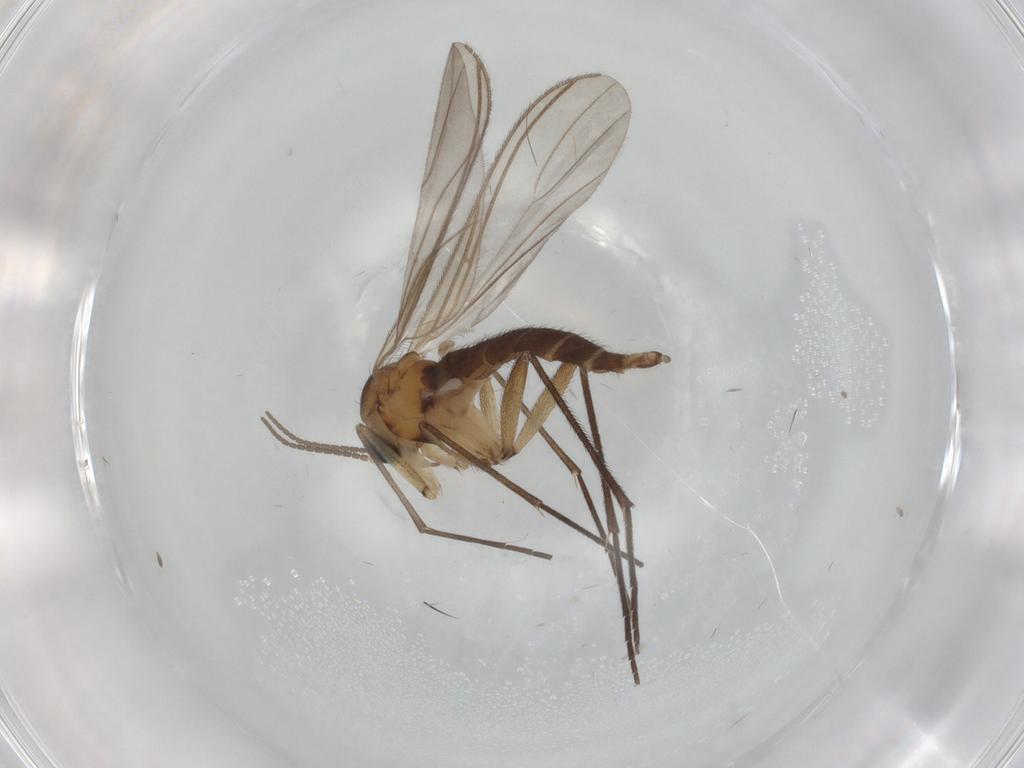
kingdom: Animalia
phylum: Arthropoda
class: Insecta
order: Diptera
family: Sciaridae
